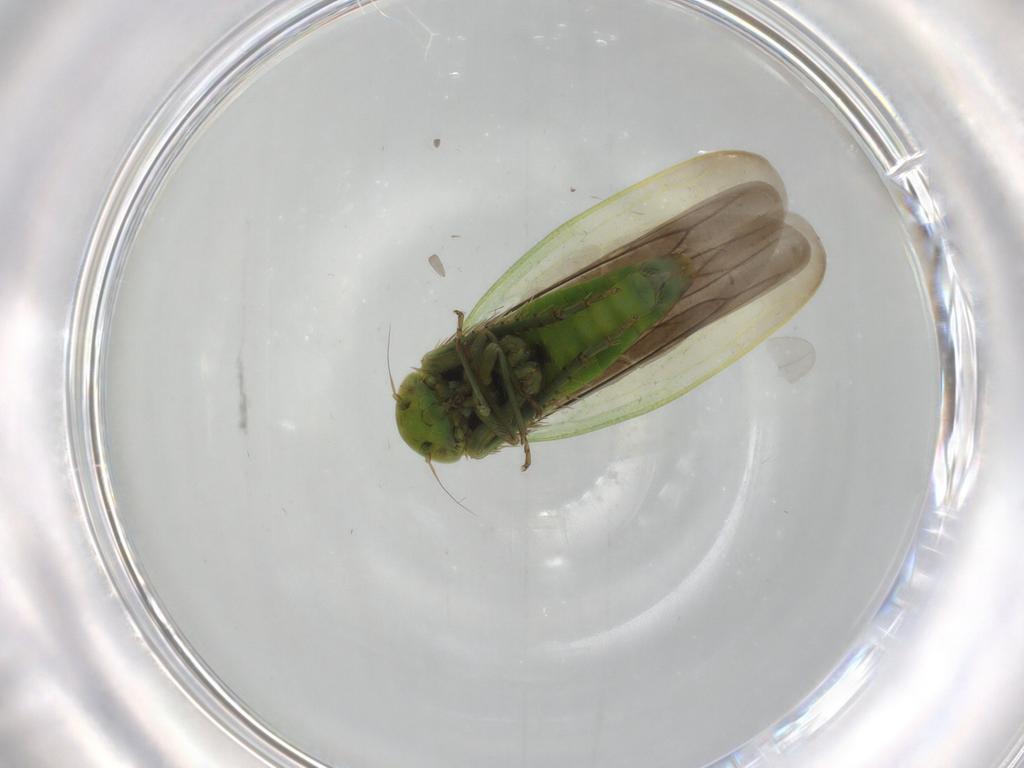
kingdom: Animalia
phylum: Arthropoda
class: Insecta
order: Hemiptera
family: Cicadellidae
